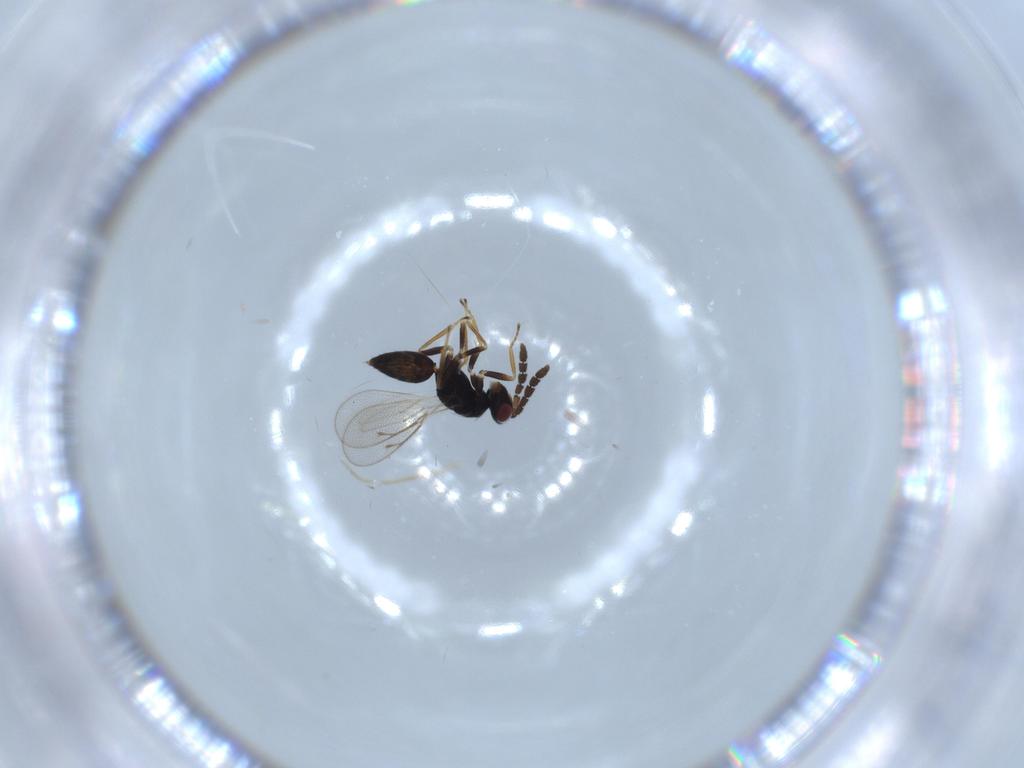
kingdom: Animalia
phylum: Arthropoda
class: Insecta
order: Hymenoptera
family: Eulophidae
